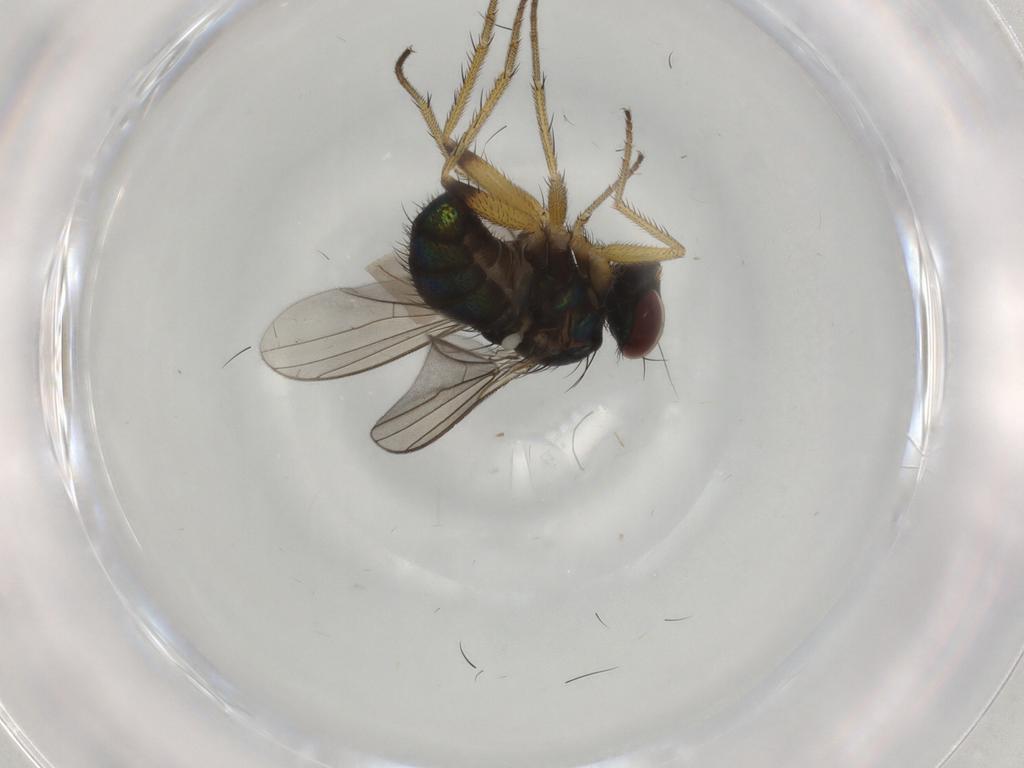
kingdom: Animalia
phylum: Arthropoda
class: Insecta
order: Diptera
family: Dolichopodidae
